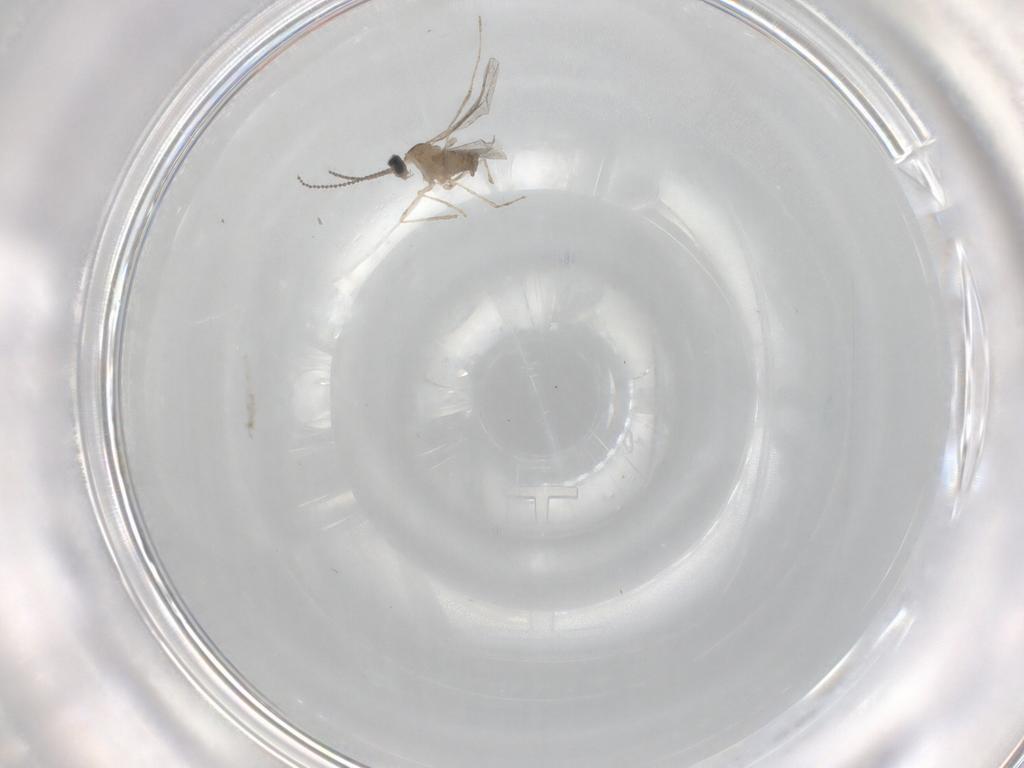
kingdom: Animalia
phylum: Arthropoda
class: Insecta
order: Diptera
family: Cecidomyiidae
